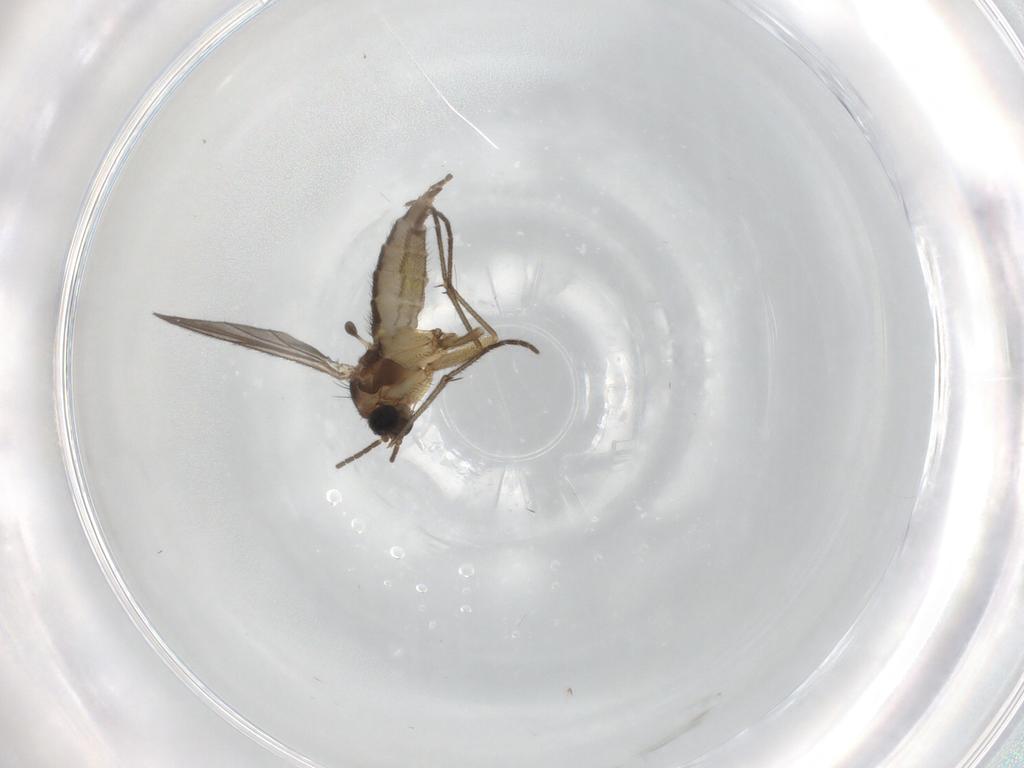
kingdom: Animalia
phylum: Arthropoda
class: Insecta
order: Diptera
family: Sciaridae
